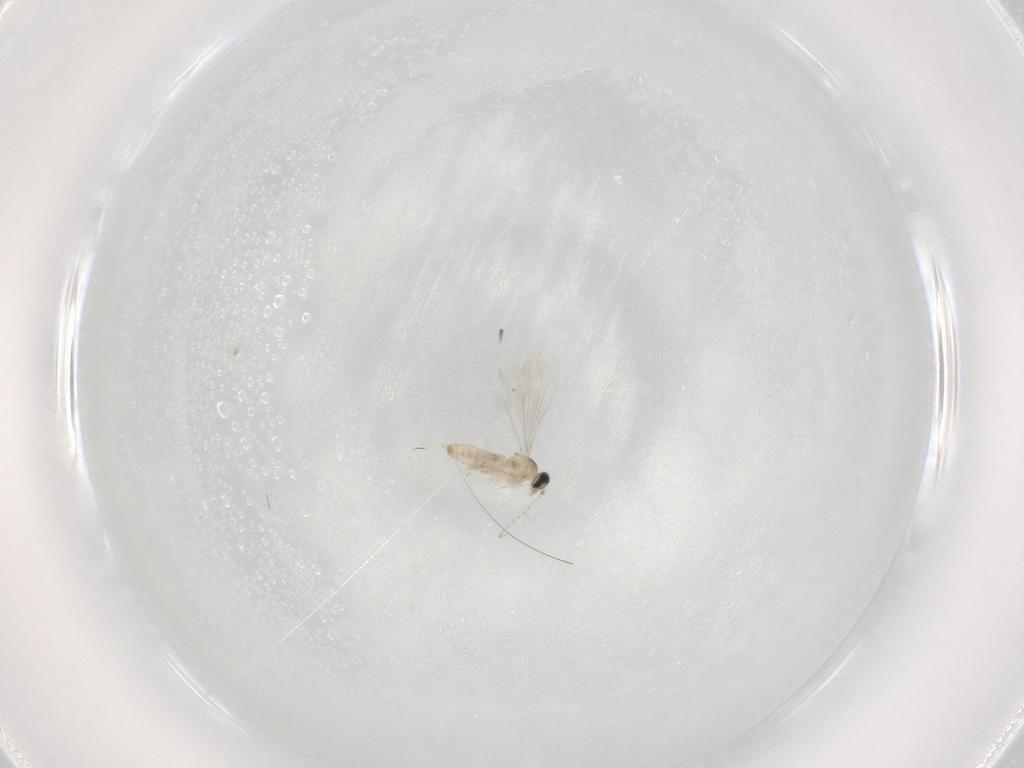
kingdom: Animalia
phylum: Arthropoda
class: Insecta
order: Diptera
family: Cecidomyiidae
